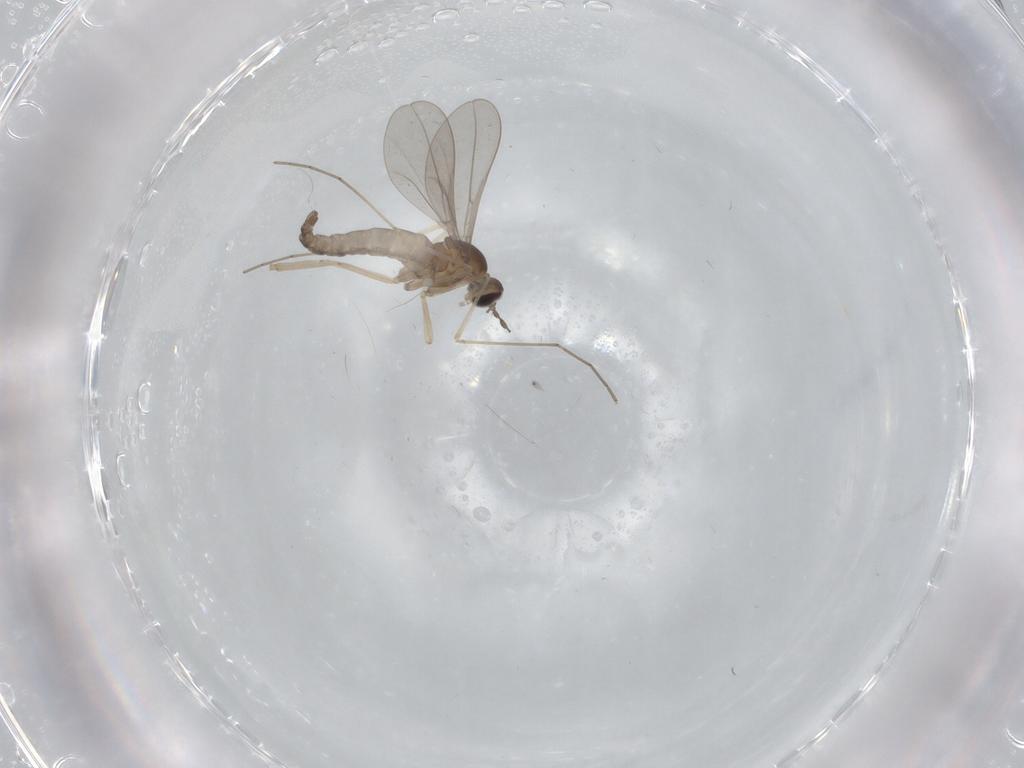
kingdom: Animalia
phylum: Arthropoda
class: Insecta
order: Diptera
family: Cecidomyiidae
